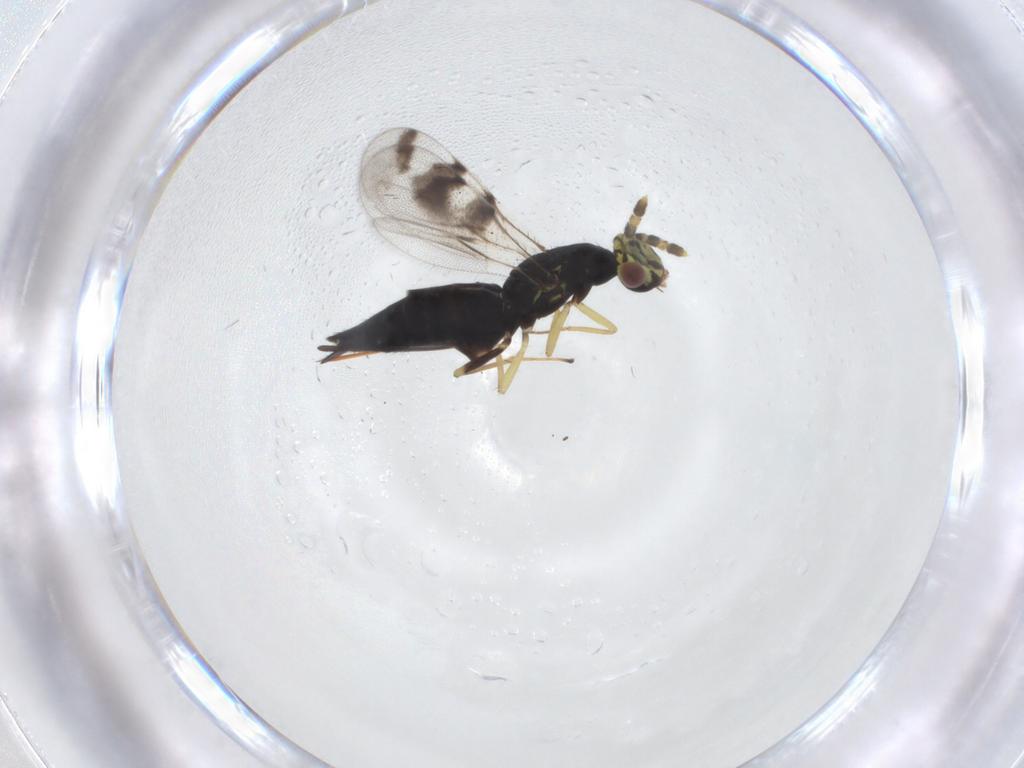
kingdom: Animalia
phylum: Arthropoda
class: Insecta
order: Hymenoptera
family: Eulophidae
